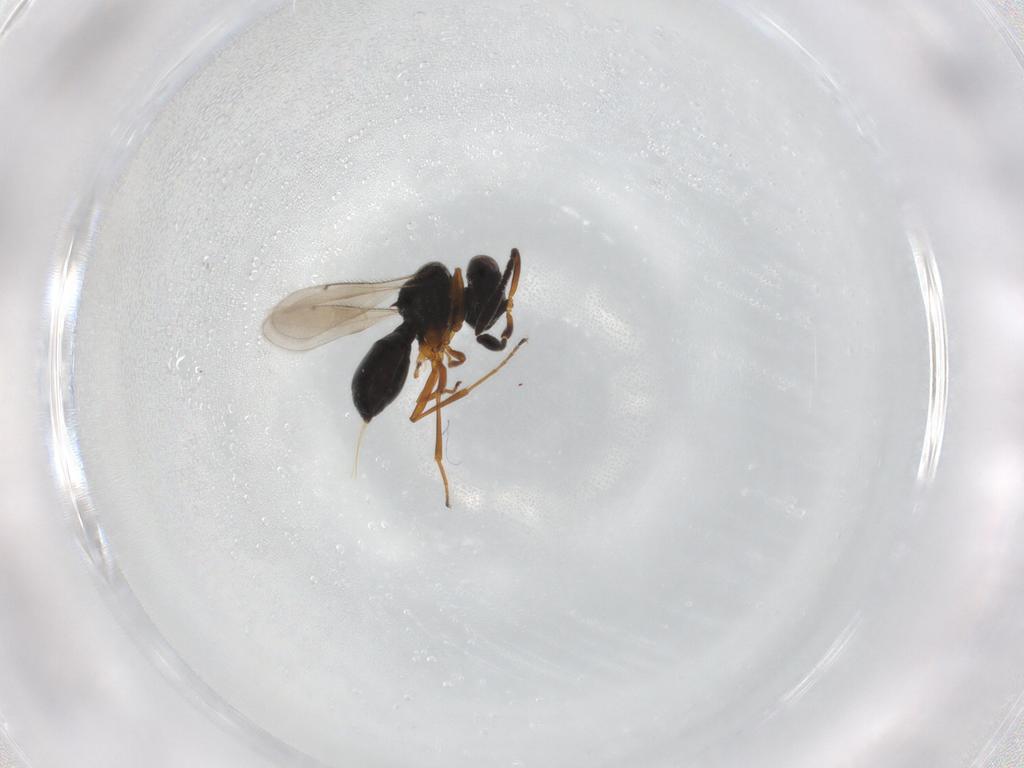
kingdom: Animalia
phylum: Arthropoda
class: Insecta
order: Hymenoptera
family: Scelionidae
